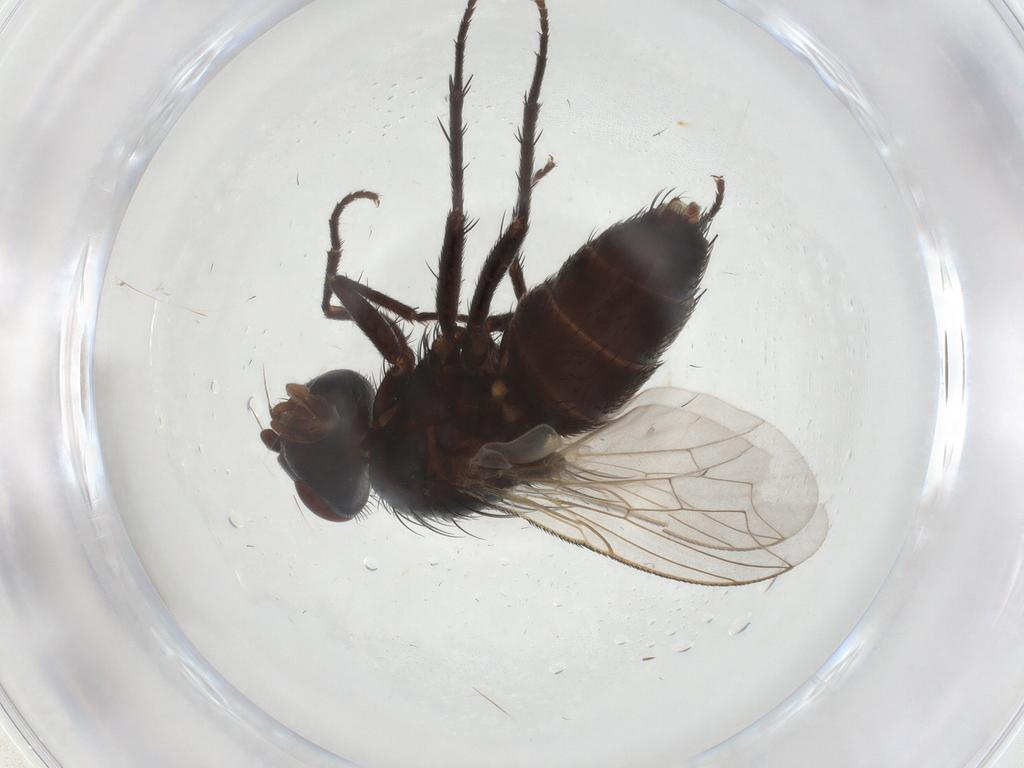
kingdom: Animalia
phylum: Arthropoda
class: Insecta
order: Diptera
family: Sarcophagidae
